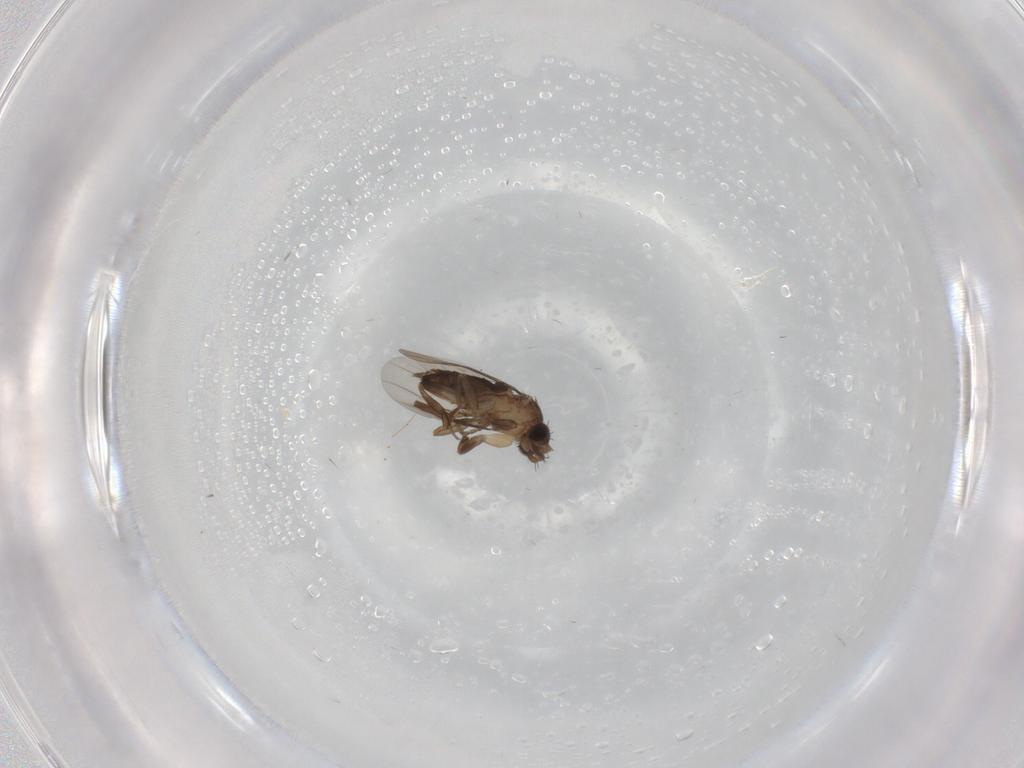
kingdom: Animalia
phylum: Arthropoda
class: Insecta
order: Diptera
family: Phoridae
